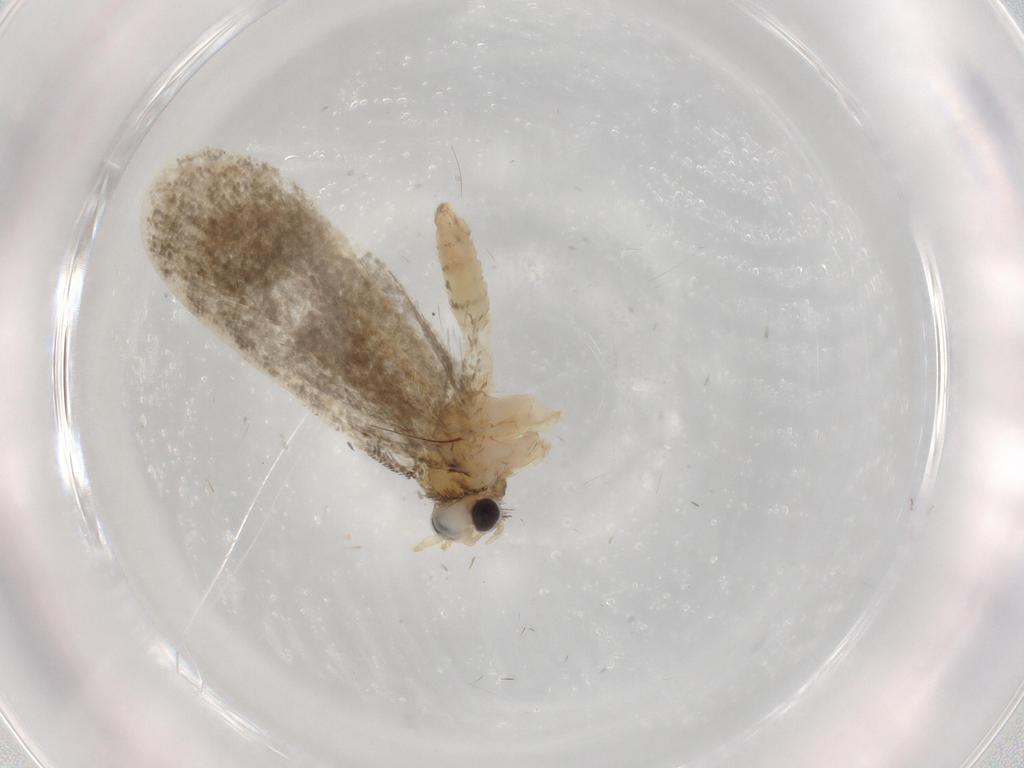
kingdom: Animalia
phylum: Arthropoda
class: Insecta
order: Lepidoptera
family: Psychidae
